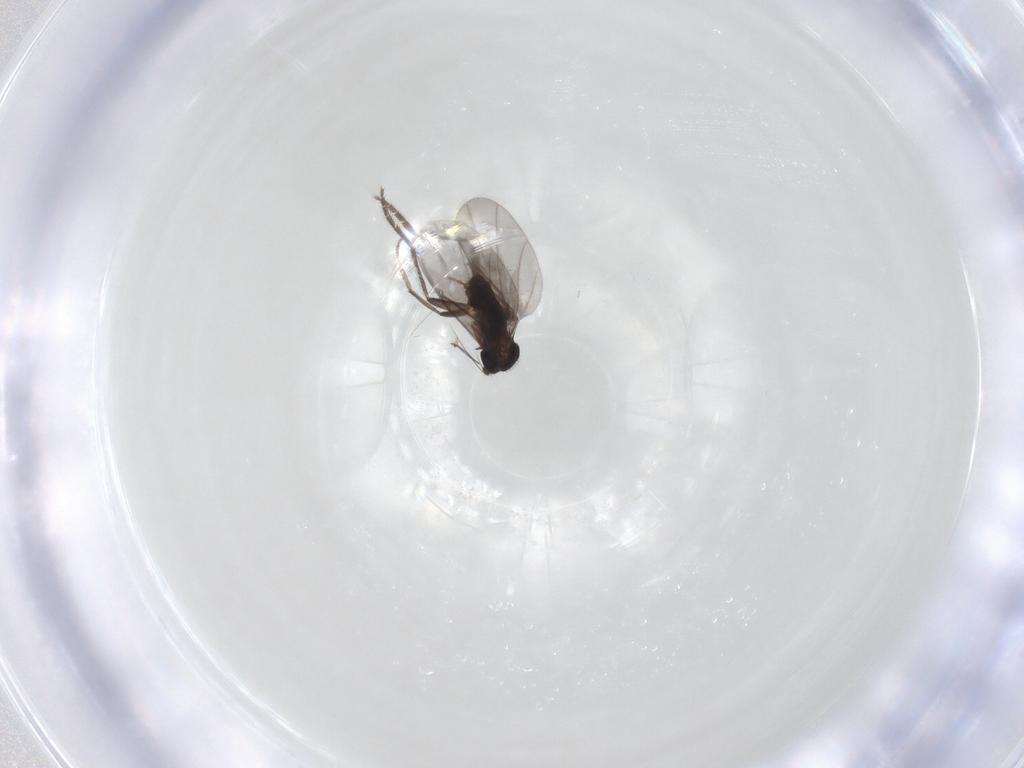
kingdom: Animalia
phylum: Arthropoda
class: Insecta
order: Diptera
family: Phoridae
